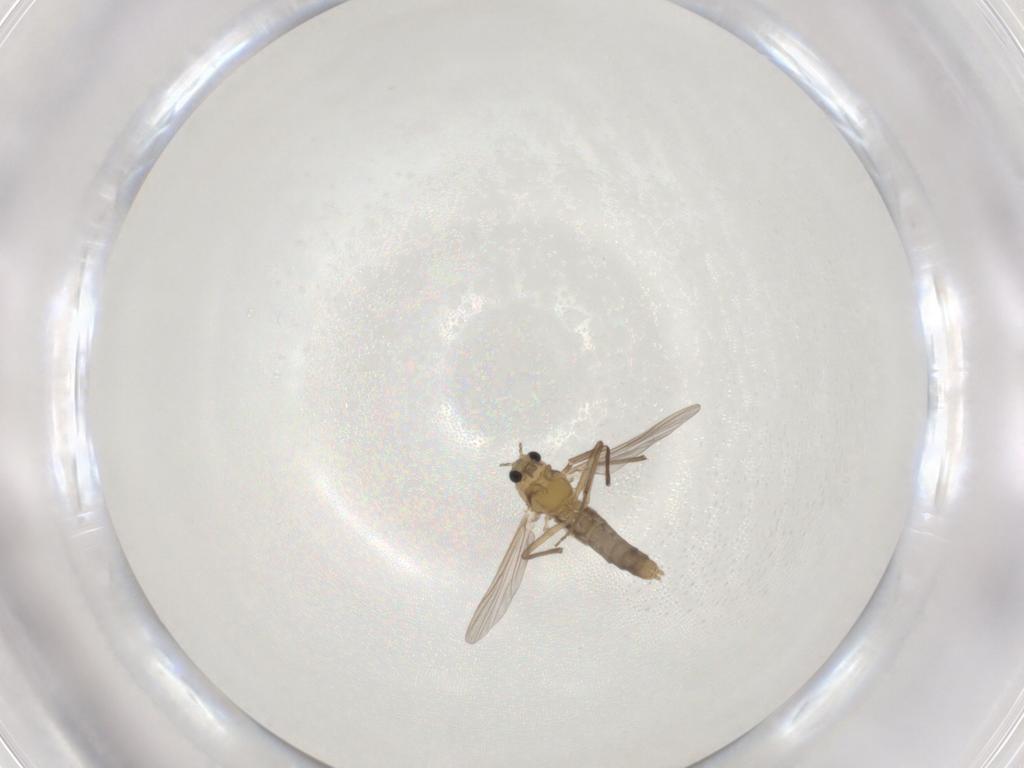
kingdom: Animalia
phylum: Arthropoda
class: Insecta
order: Diptera
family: Chironomidae
